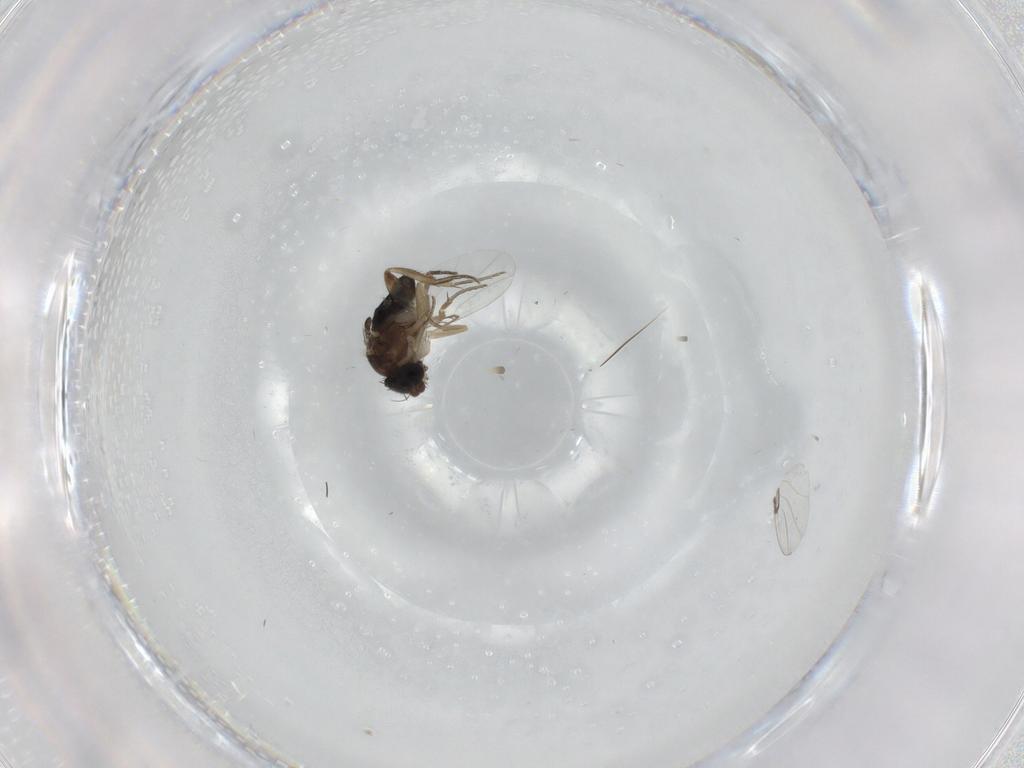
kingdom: Animalia
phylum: Arthropoda
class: Insecta
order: Diptera
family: Phoridae
